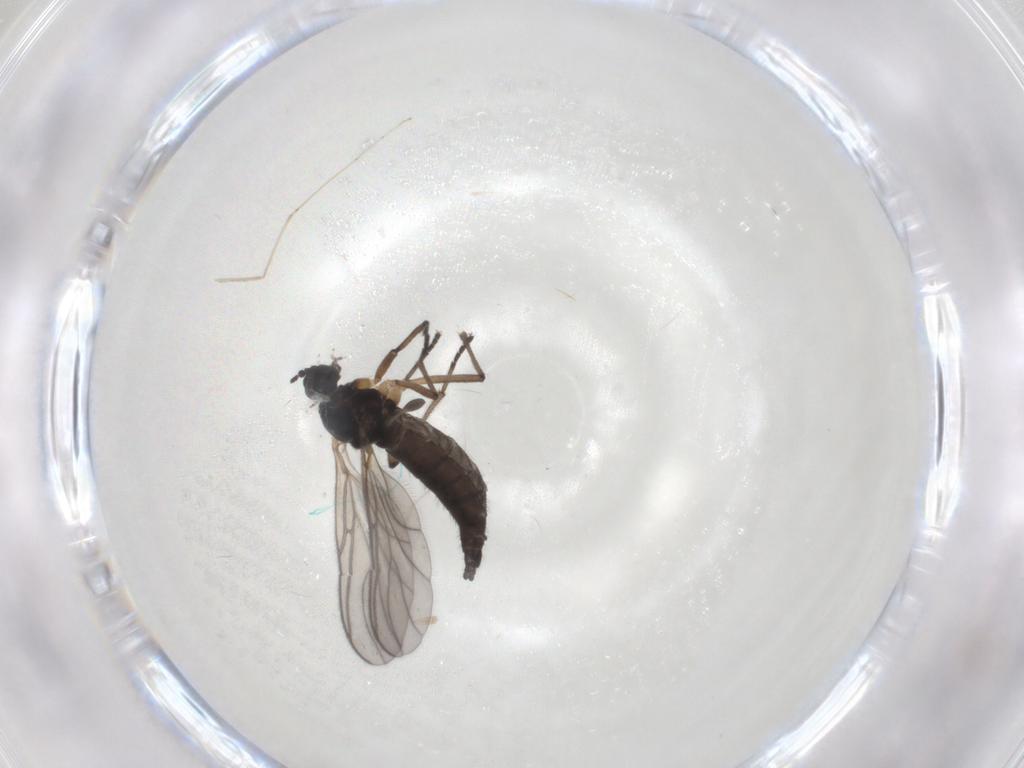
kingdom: Animalia
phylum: Arthropoda
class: Insecta
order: Diptera
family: Sciaridae
